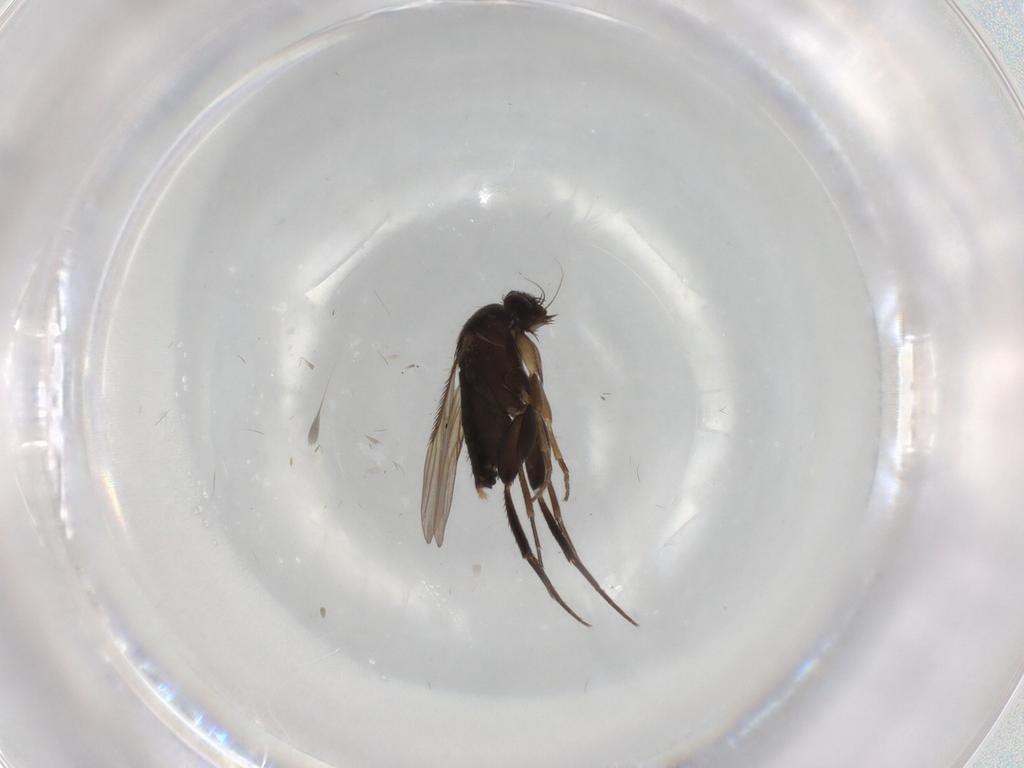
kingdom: Animalia
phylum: Arthropoda
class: Insecta
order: Diptera
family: Phoridae
